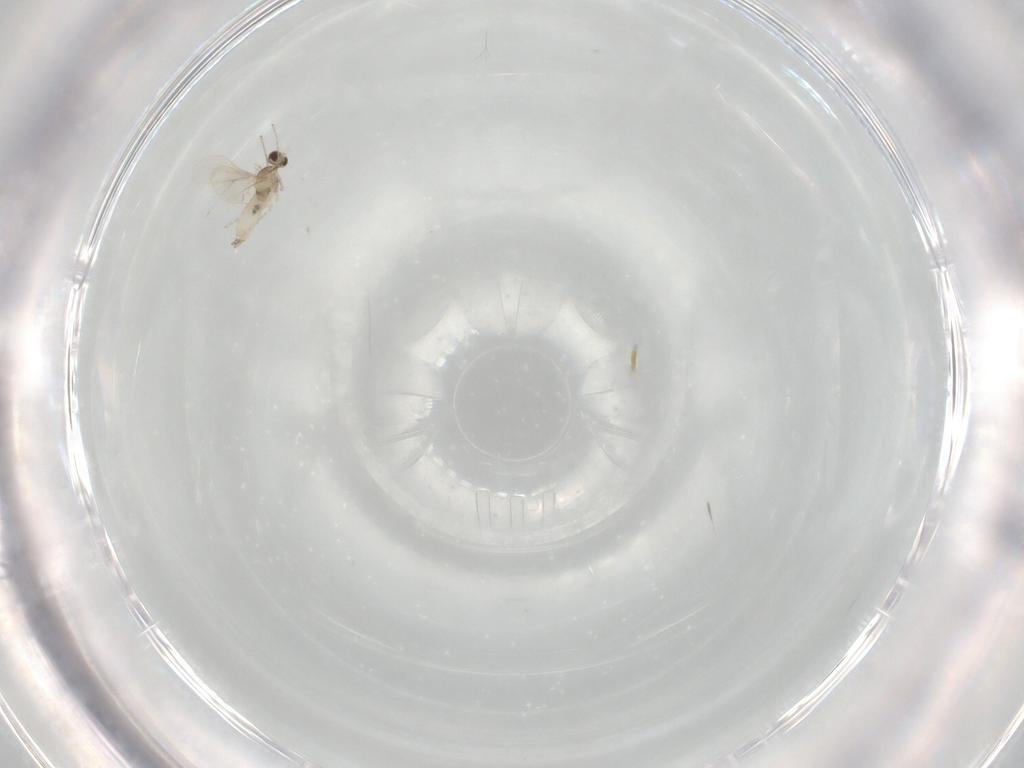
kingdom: Animalia
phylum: Arthropoda
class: Insecta
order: Diptera
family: Cecidomyiidae
